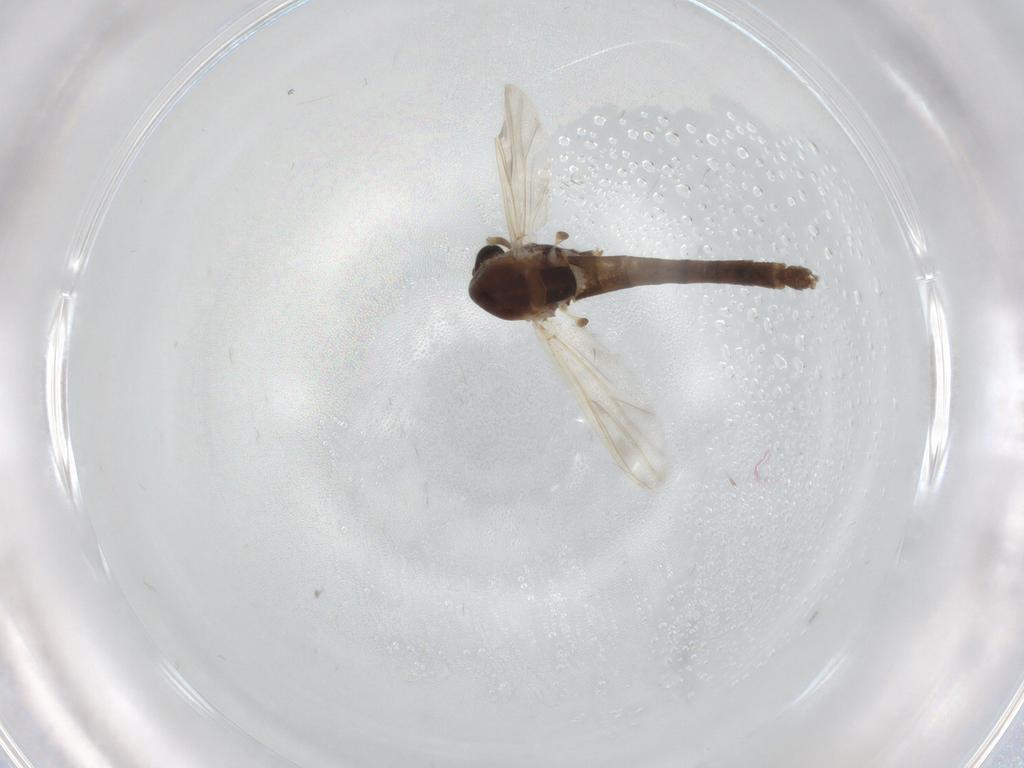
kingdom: Animalia
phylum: Arthropoda
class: Insecta
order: Diptera
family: Chironomidae
